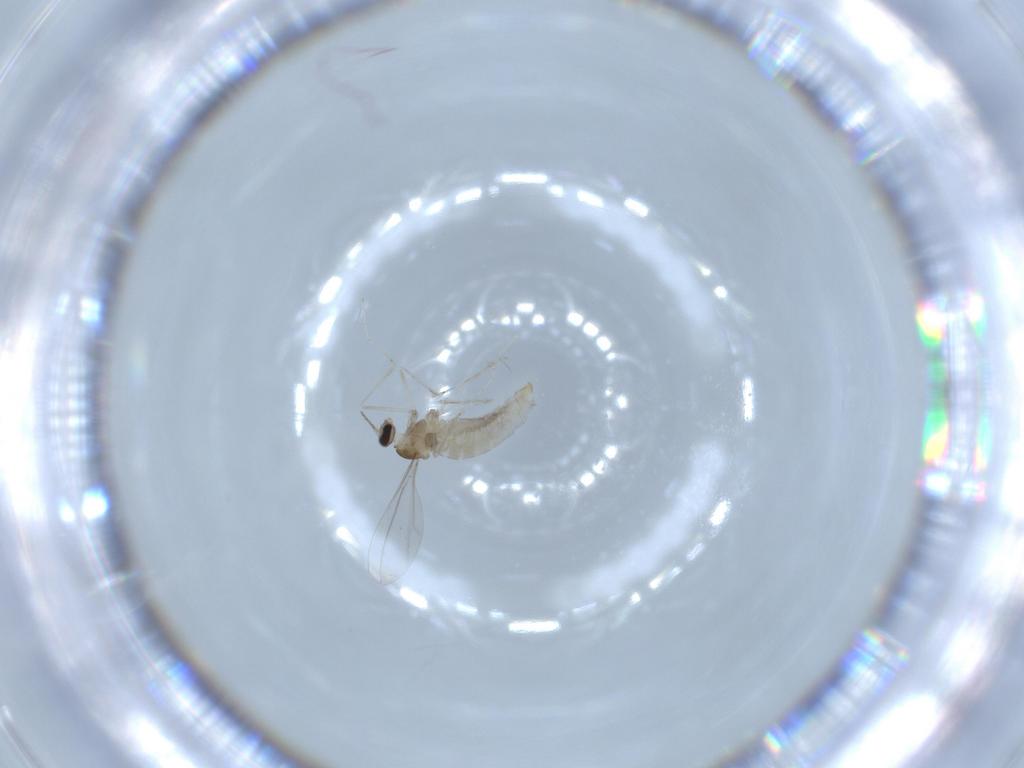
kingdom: Animalia
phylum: Arthropoda
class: Insecta
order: Diptera
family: Cecidomyiidae
